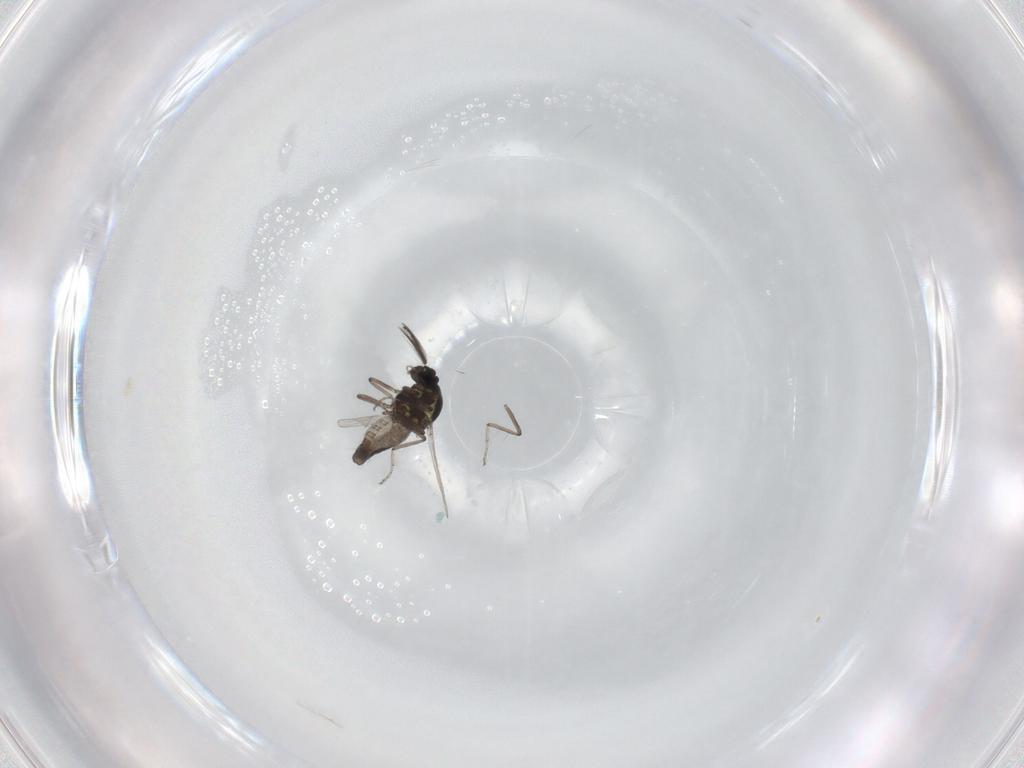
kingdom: Animalia
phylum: Arthropoda
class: Insecta
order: Diptera
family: Ceratopogonidae
